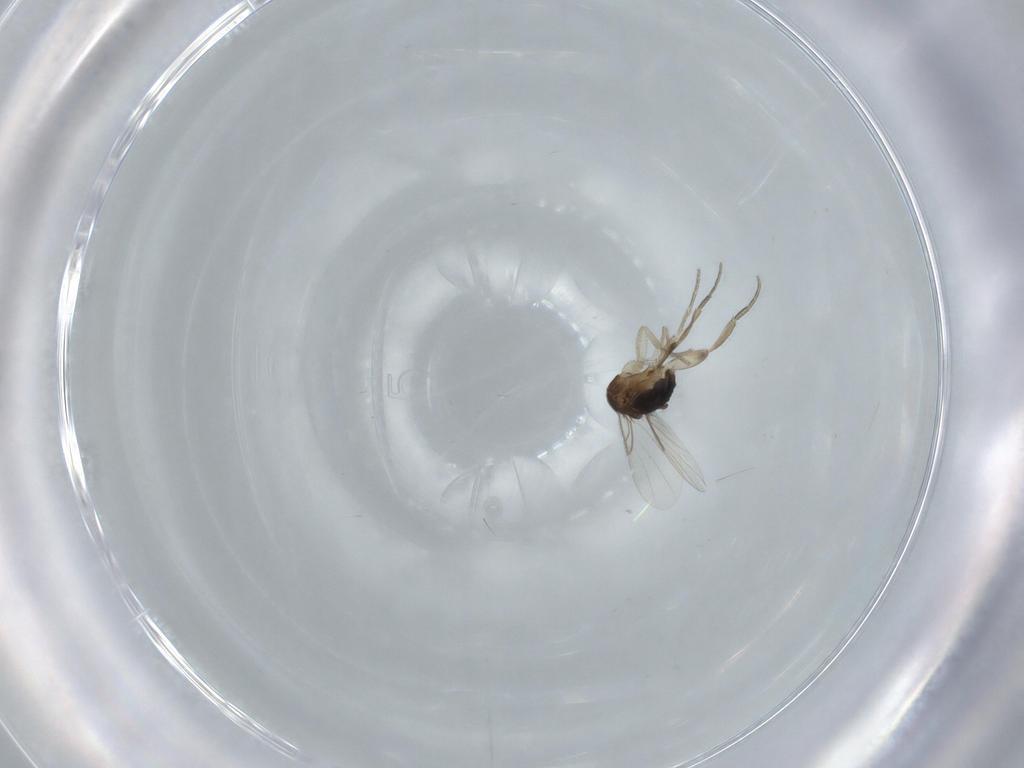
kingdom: Animalia
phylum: Arthropoda
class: Insecta
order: Diptera
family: Phoridae
